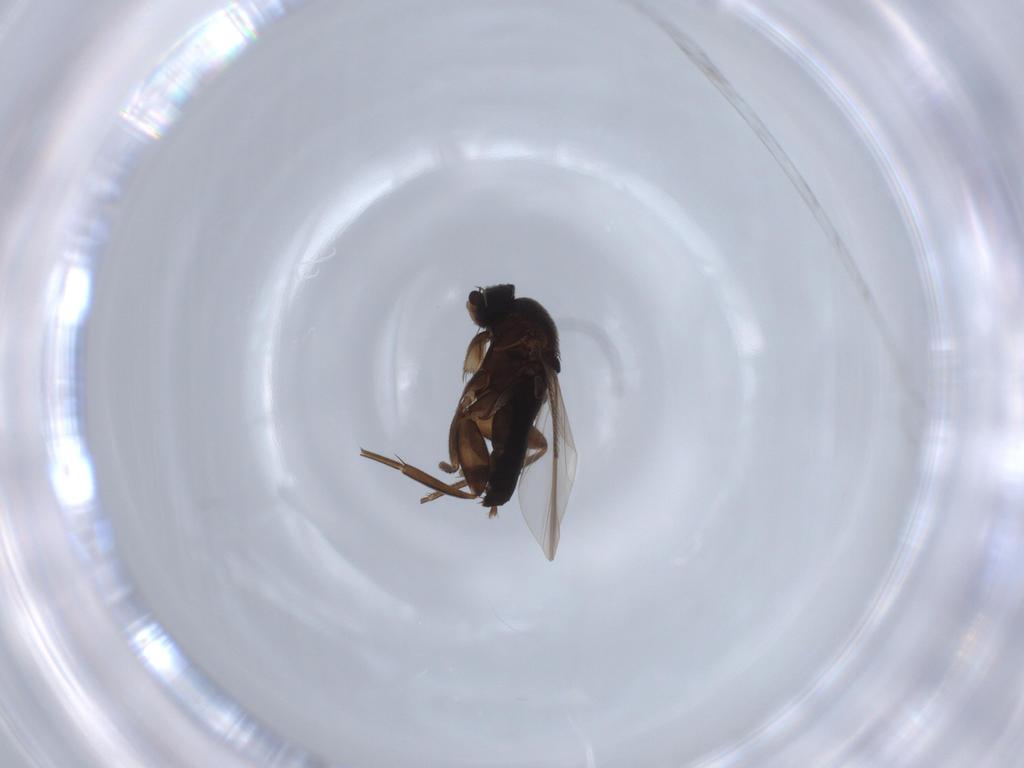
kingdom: Animalia
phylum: Arthropoda
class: Insecta
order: Diptera
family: Phoridae
